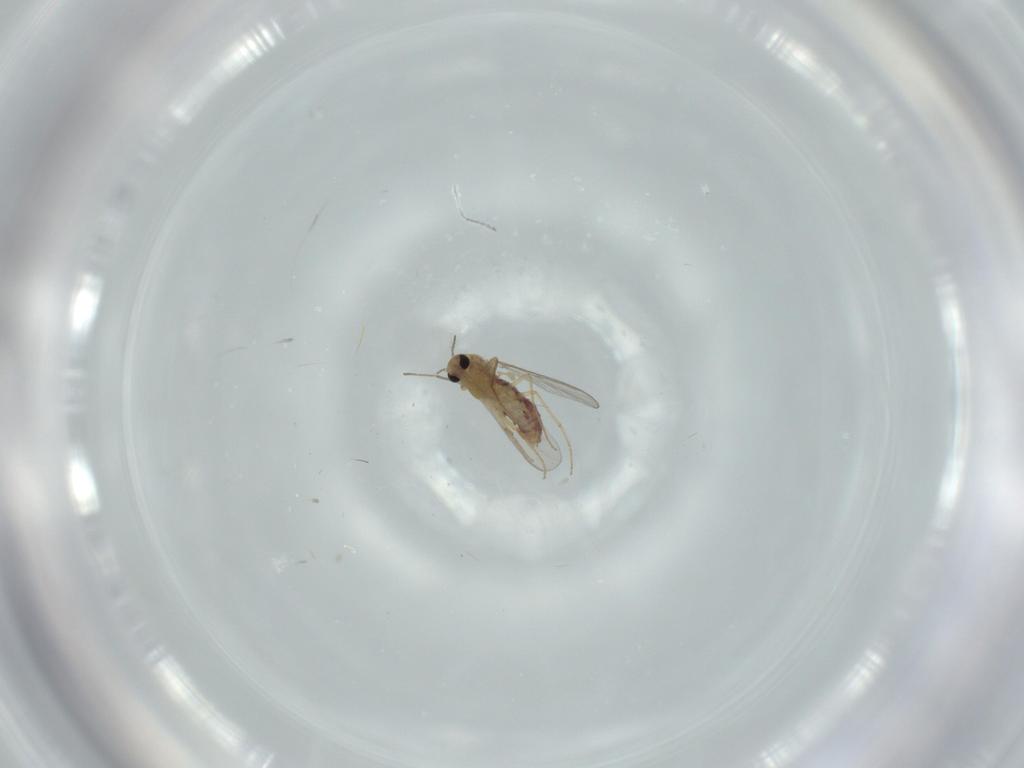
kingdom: Animalia
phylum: Arthropoda
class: Insecta
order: Diptera
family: Chironomidae
